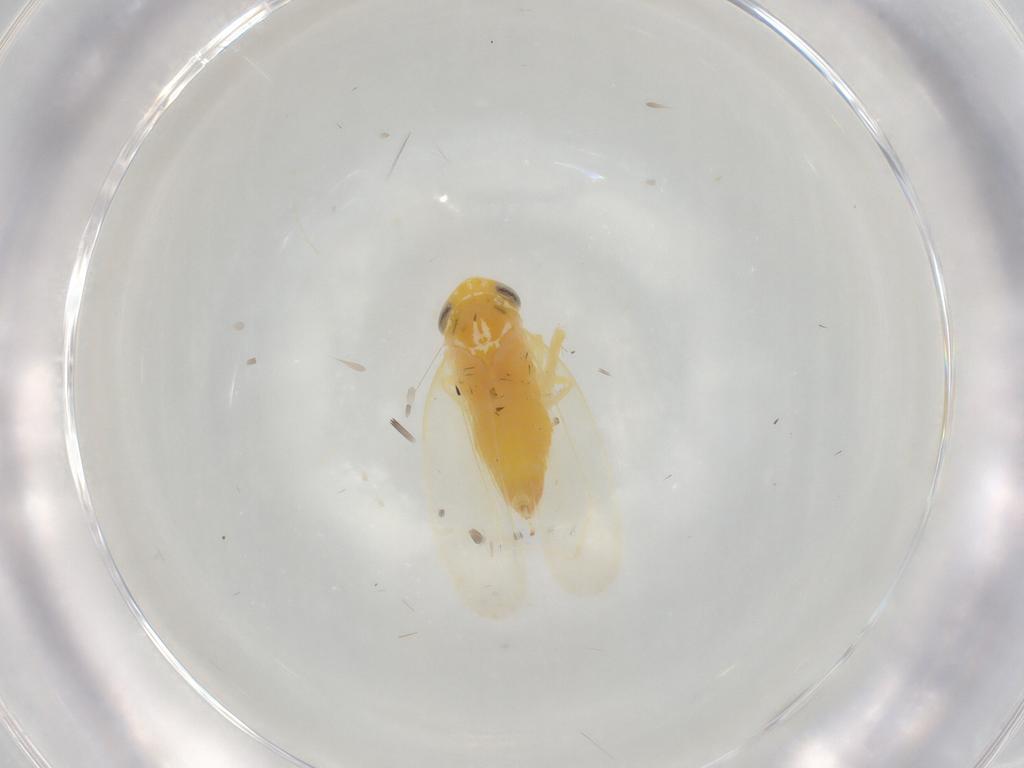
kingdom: Animalia
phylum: Arthropoda
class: Insecta
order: Hemiptera
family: Cicadellidae
